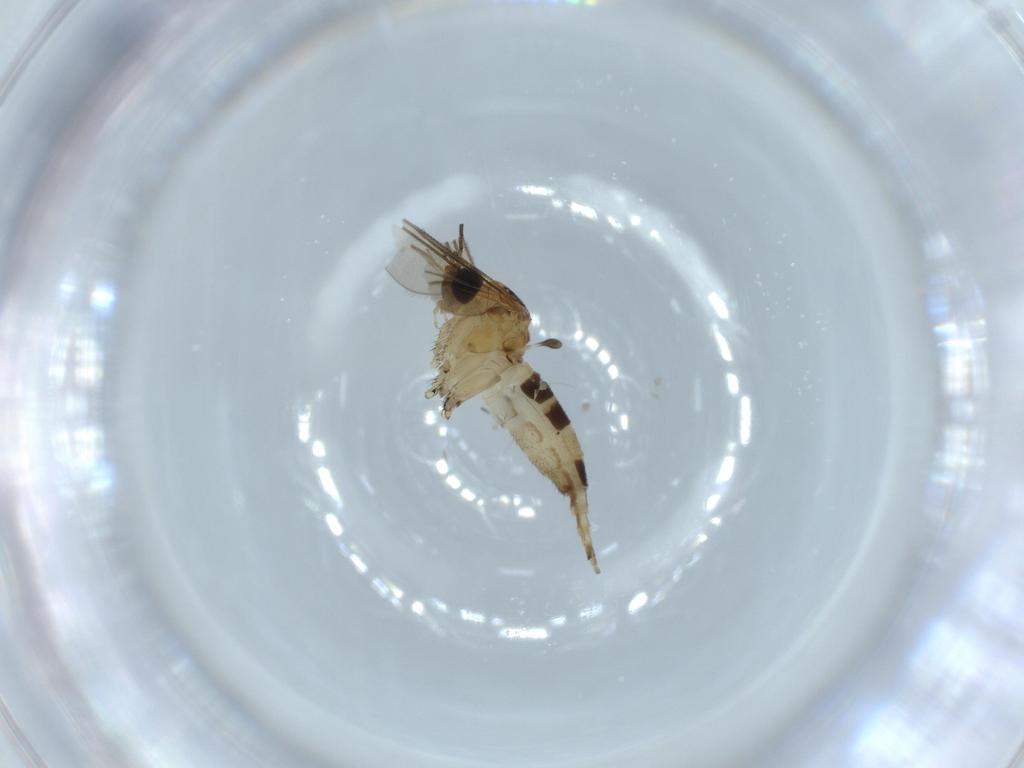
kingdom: Animalia
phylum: Arthropoda
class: Insecta
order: Diptera
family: Sciaridae
